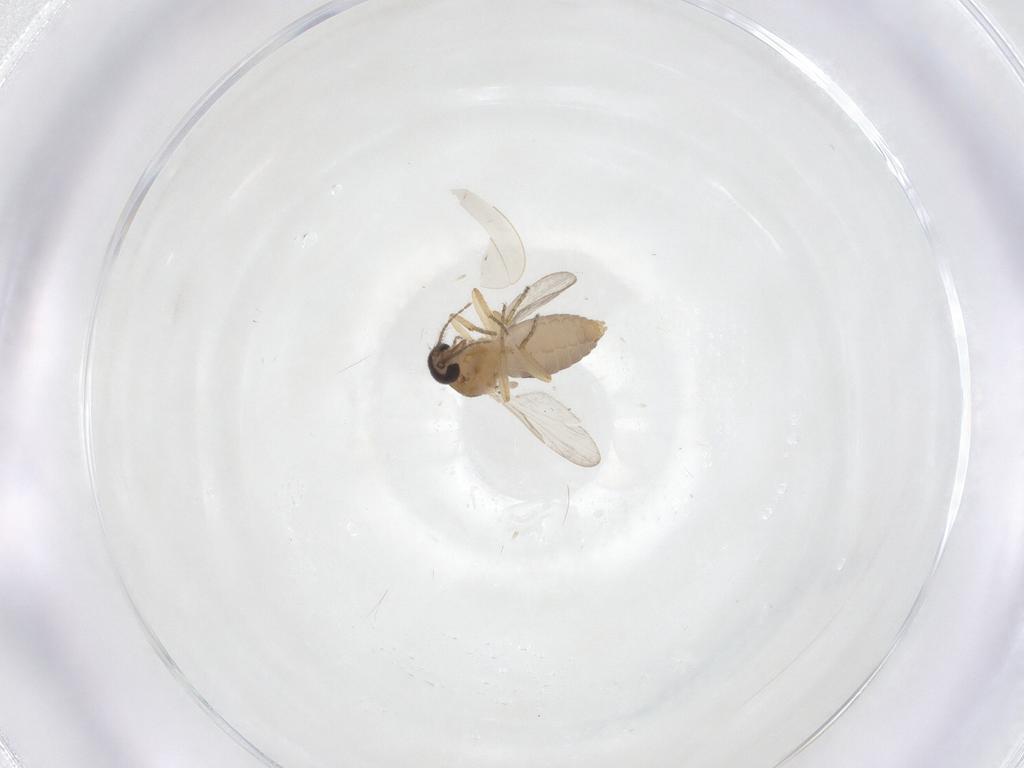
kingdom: Animalia
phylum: Arthropoda
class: Insecta
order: Diptera
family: Ceratopogonidae
